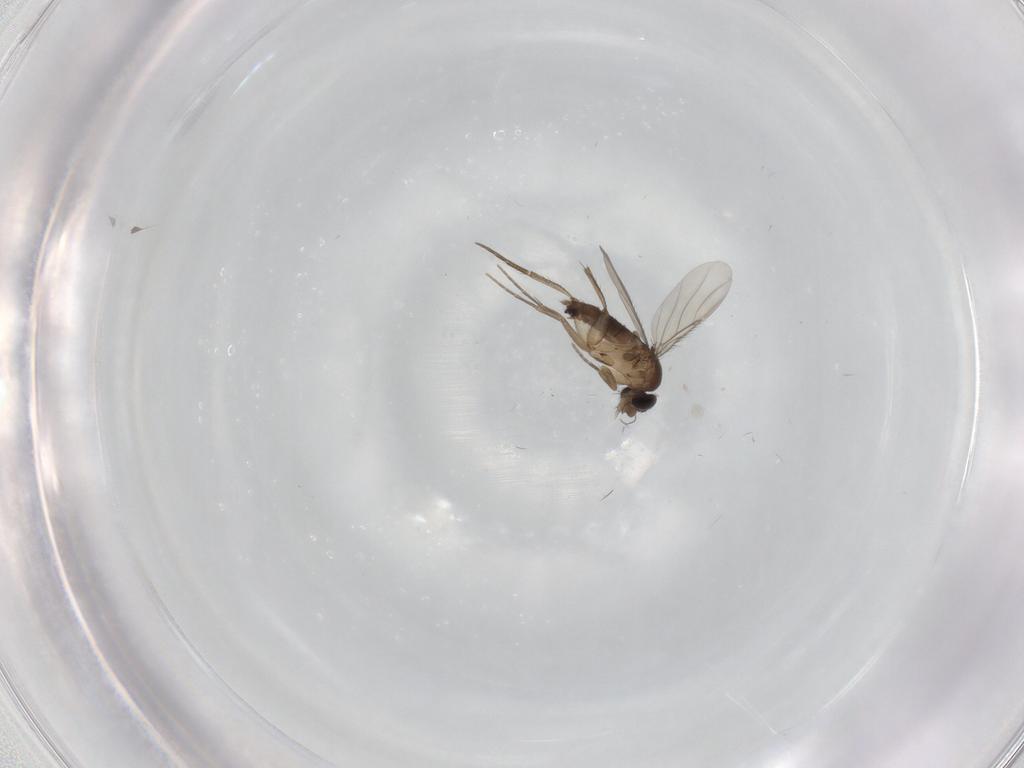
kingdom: Animalia
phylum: Arthropoda
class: Insecta
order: Diptera
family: Phoridae
